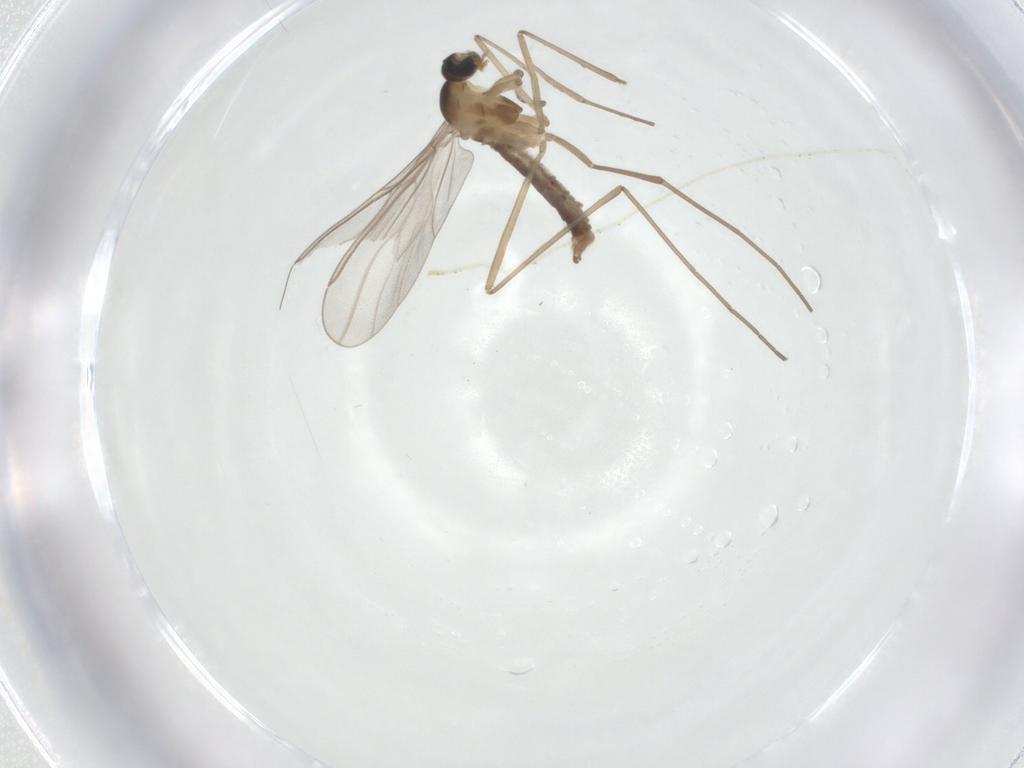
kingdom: Animalia
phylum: Arthropoda
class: Insecta
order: Diptera
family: Cecidomyiidae
